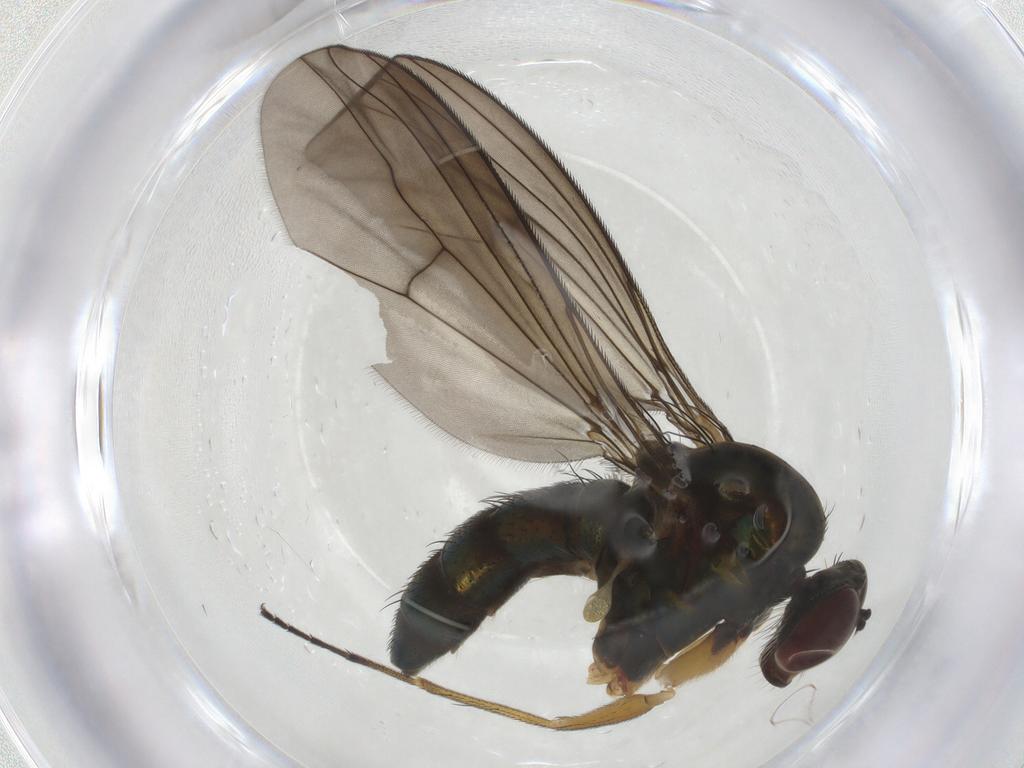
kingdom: Animalia
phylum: Arthropoda
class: Insecta
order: Diptera
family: Dolichopodidae
